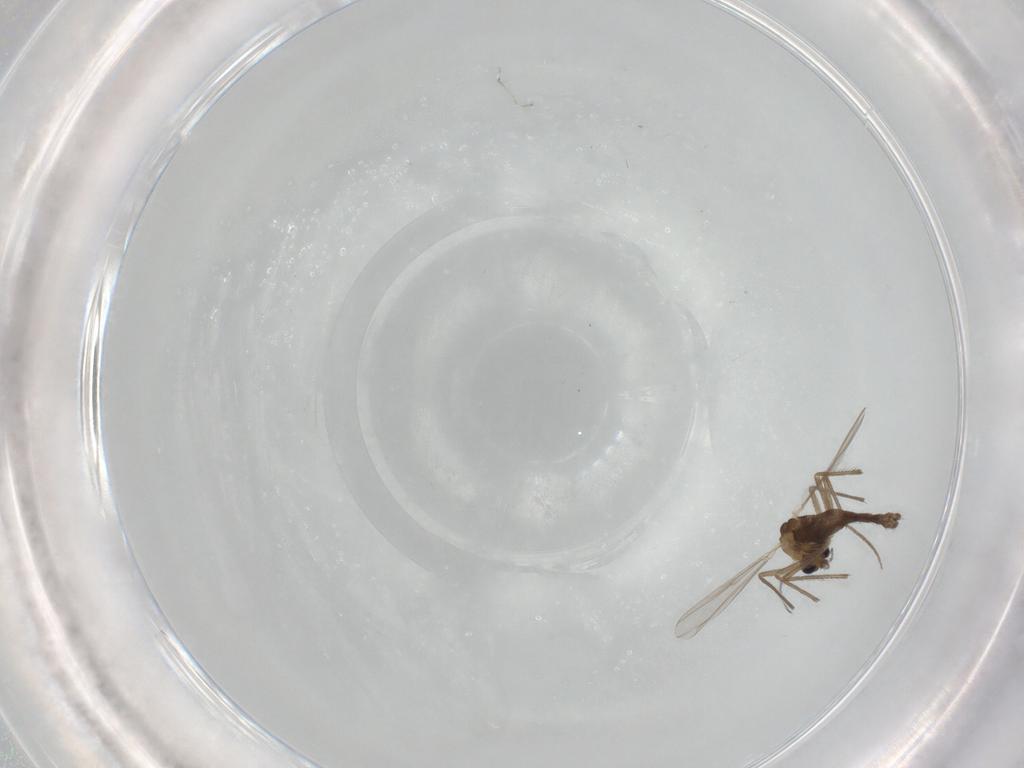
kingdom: Animalia
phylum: Arthropoda
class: Insecta
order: Diptera
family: Chironomidae
